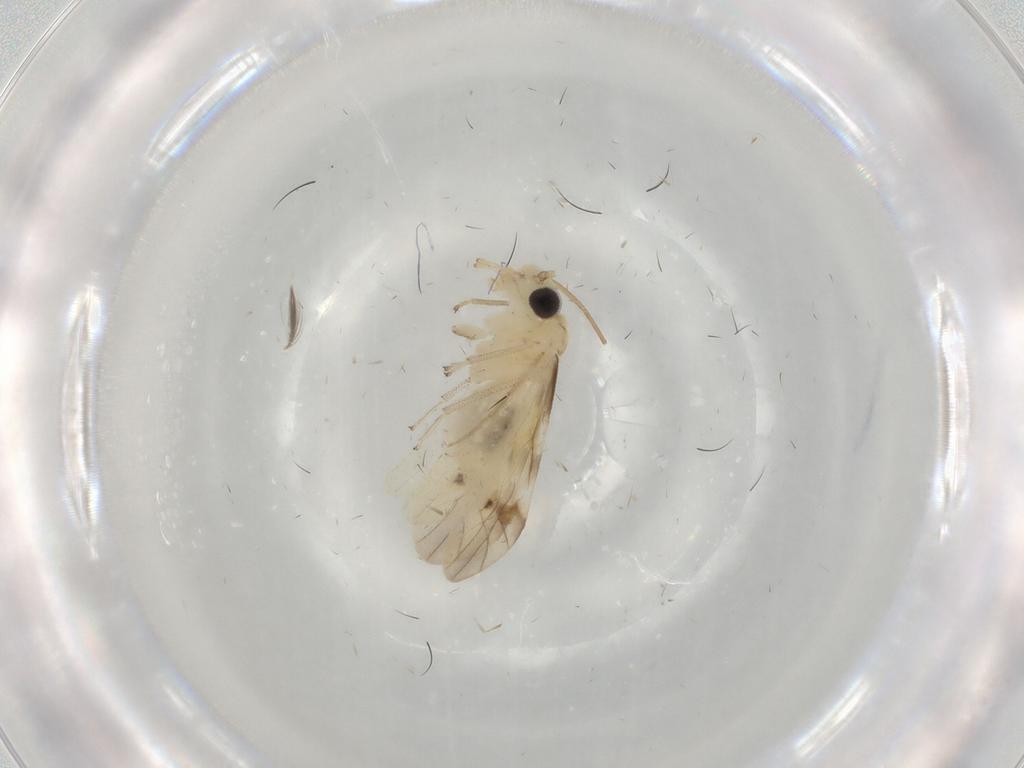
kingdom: Animalia
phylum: Arthropoda
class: Insecta
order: Psocodea
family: Caeciliusidae
